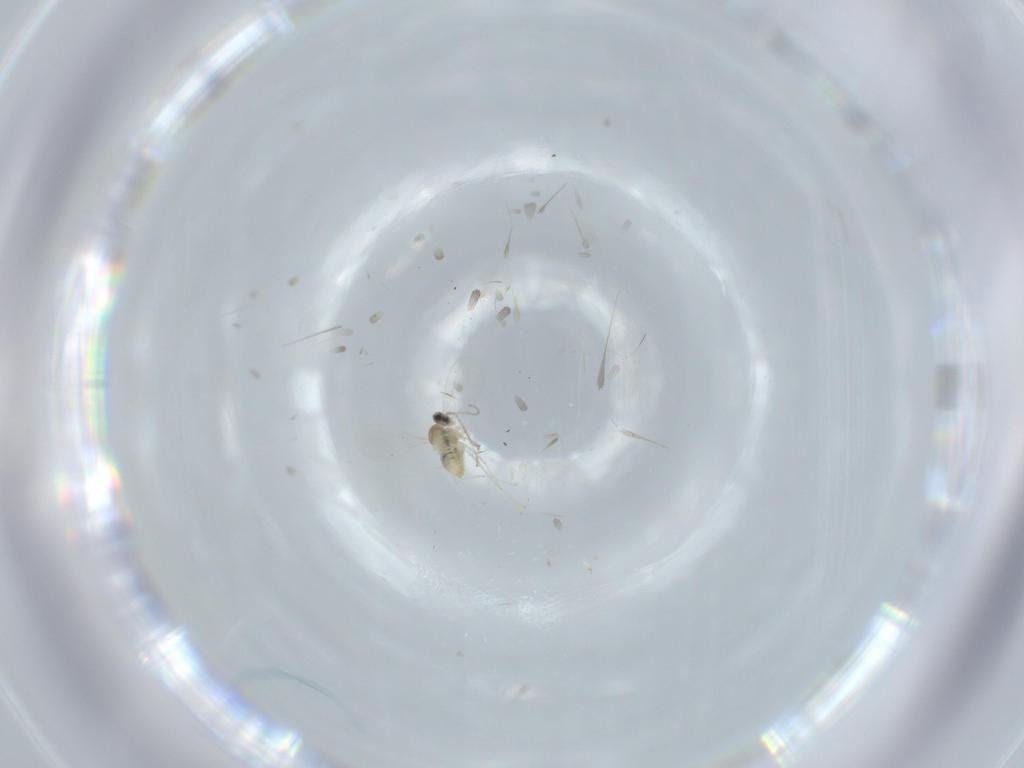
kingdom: Animalia
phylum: Arthropoda
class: Insecta
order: Diptera
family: Cecidomyiidae
